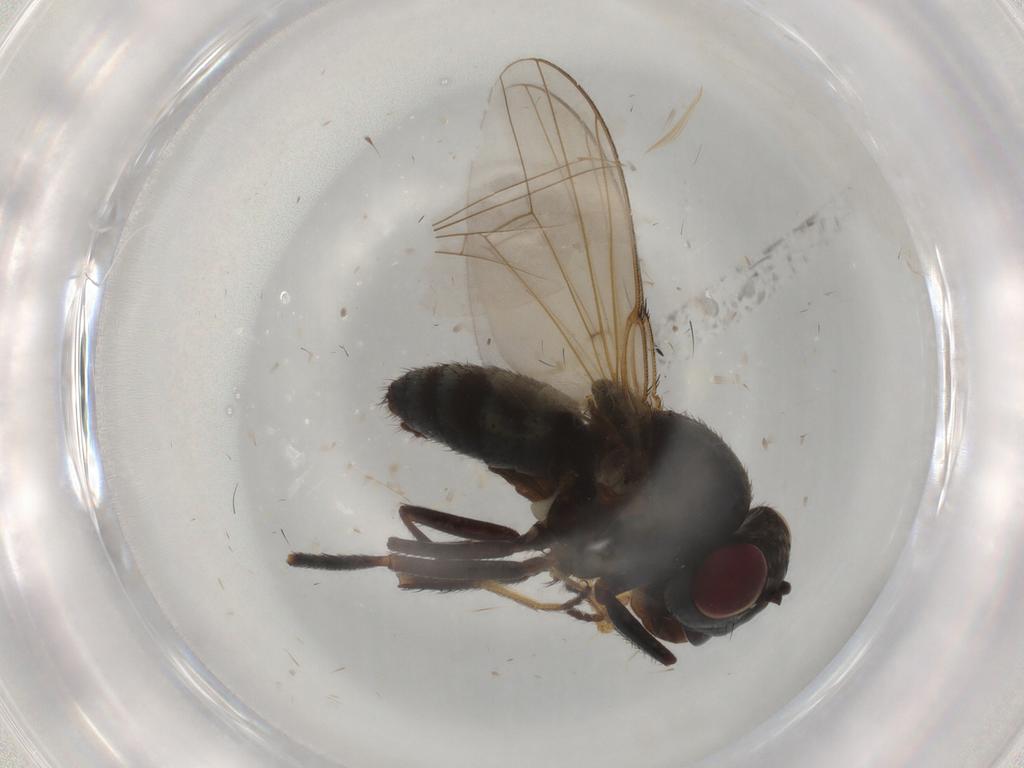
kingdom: Animalia
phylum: Arthropoda
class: Insecta
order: Diptera
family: Ephydridae
